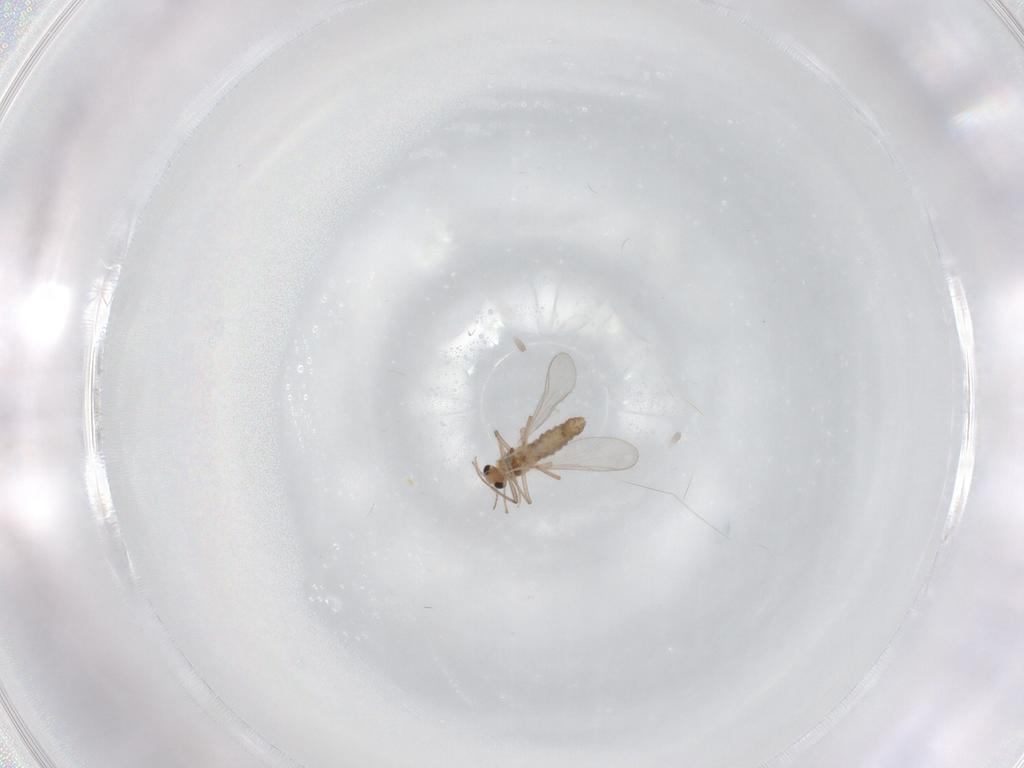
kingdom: Animalia
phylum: Arthropoda
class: Insecta
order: Diptera
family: Chironomidae
